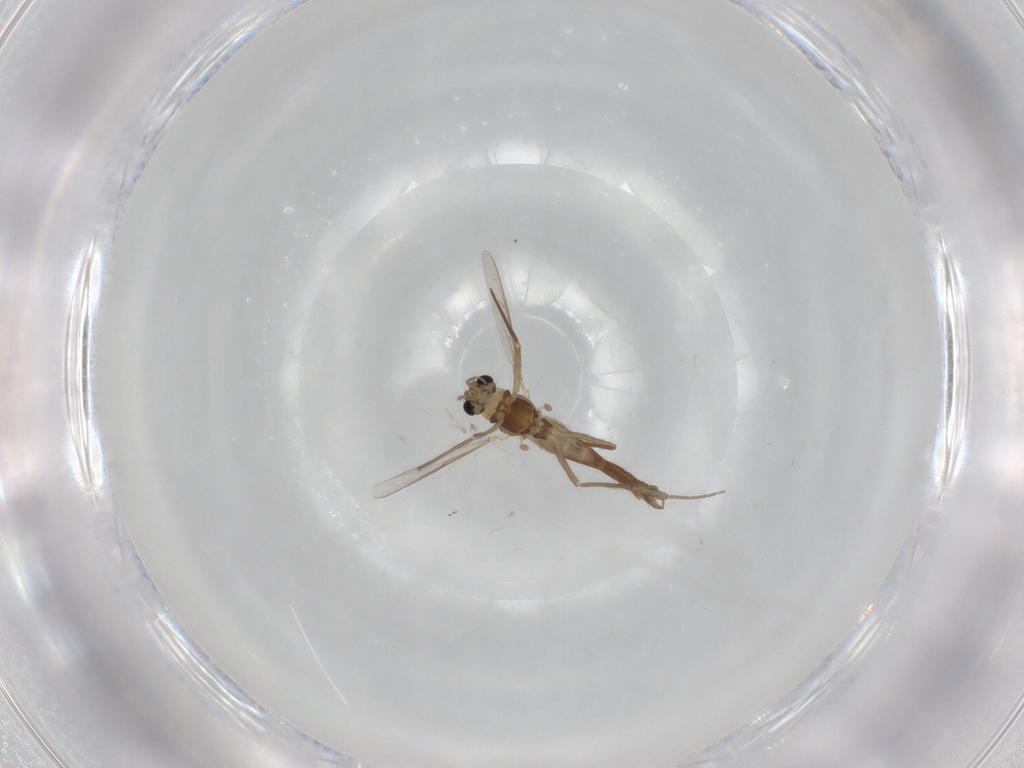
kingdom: Animalia
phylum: Arthropoda
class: Insecta
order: Diptera
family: Chironomidae
